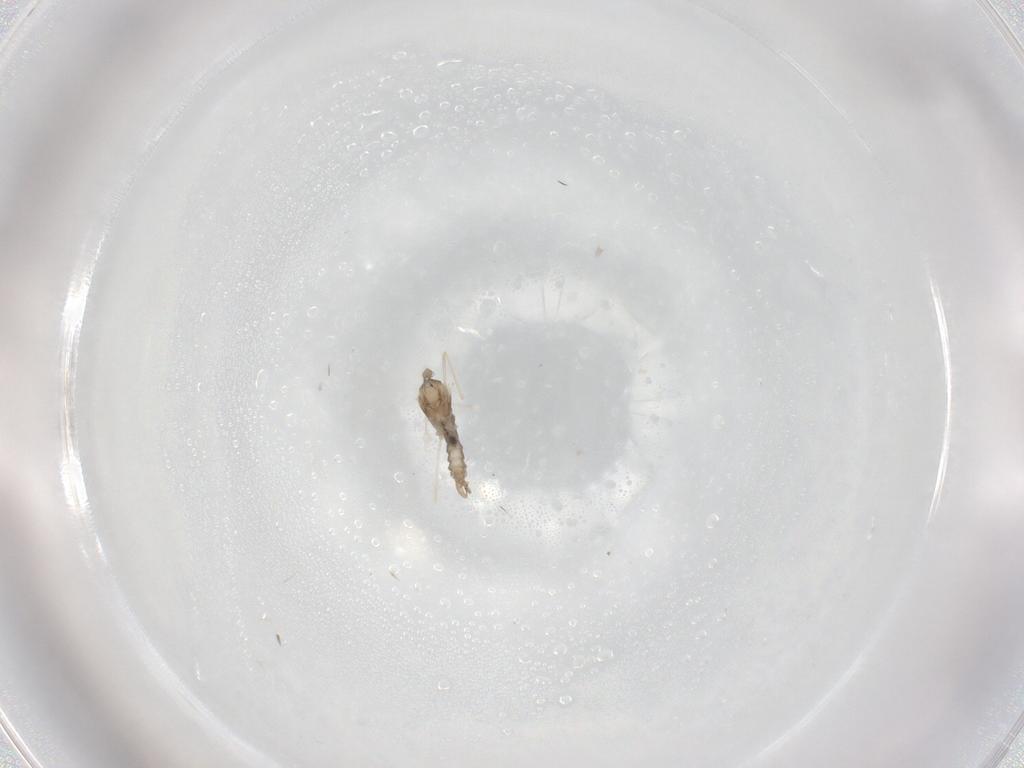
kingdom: Animalia
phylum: Arthropoda
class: Insecta
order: Diptera
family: Cecidomyiidae
